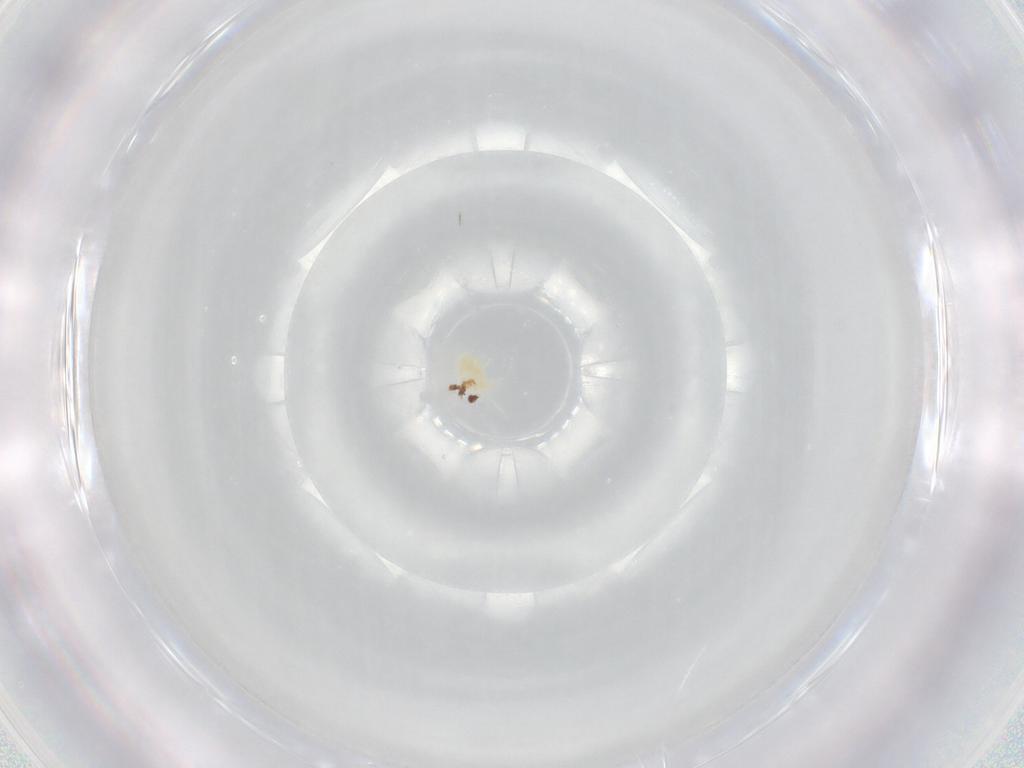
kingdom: Animalia
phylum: Arthropoda
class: Arachnida
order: Trombidiformes
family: Eupodidae
